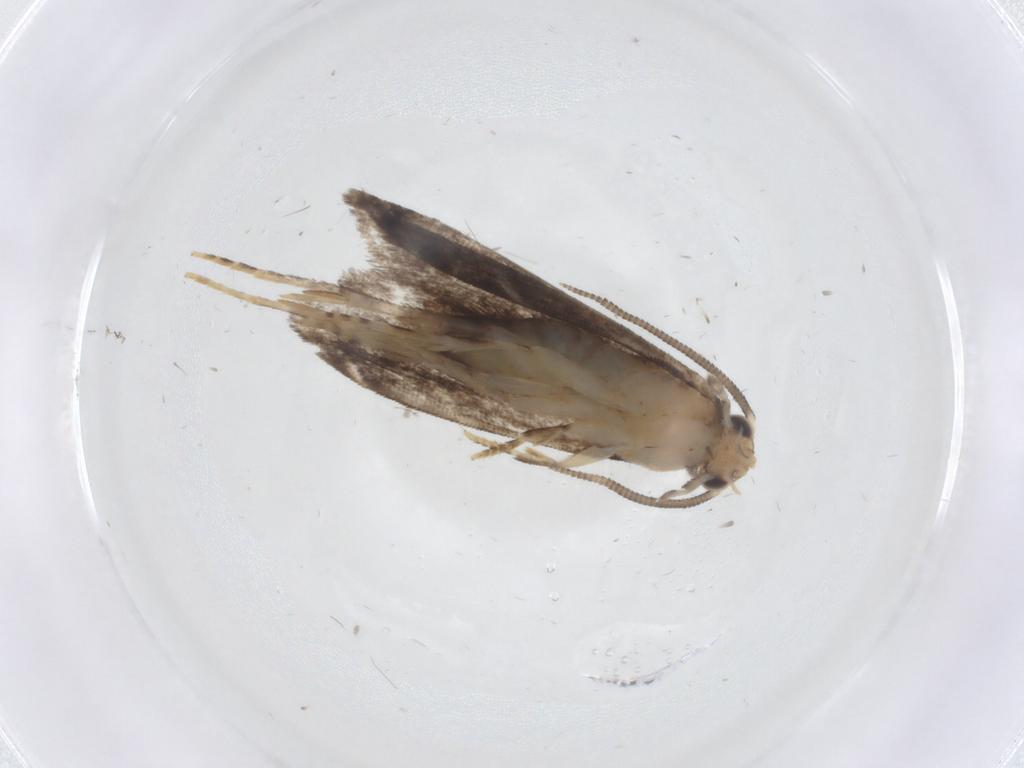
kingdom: Animalia
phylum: Arthropoda
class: Insecta
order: Lepidoptera
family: Dryadaulidae
